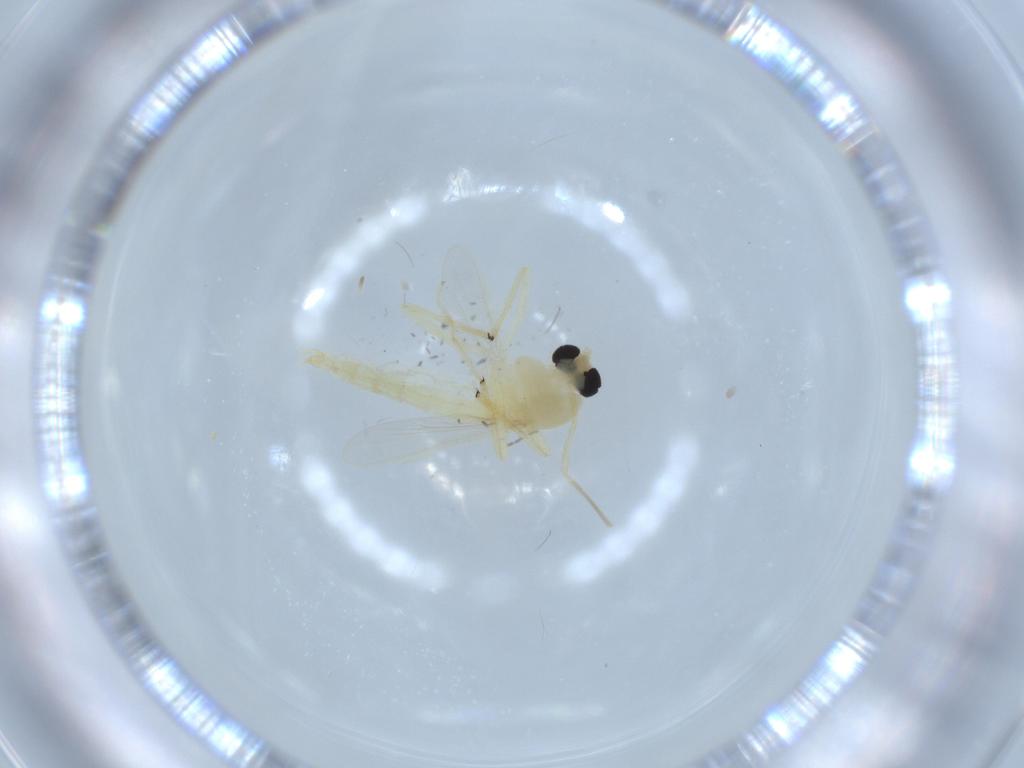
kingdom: Animalia
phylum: Arthropoda
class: Insecta
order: Diptera
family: Chironomidae
